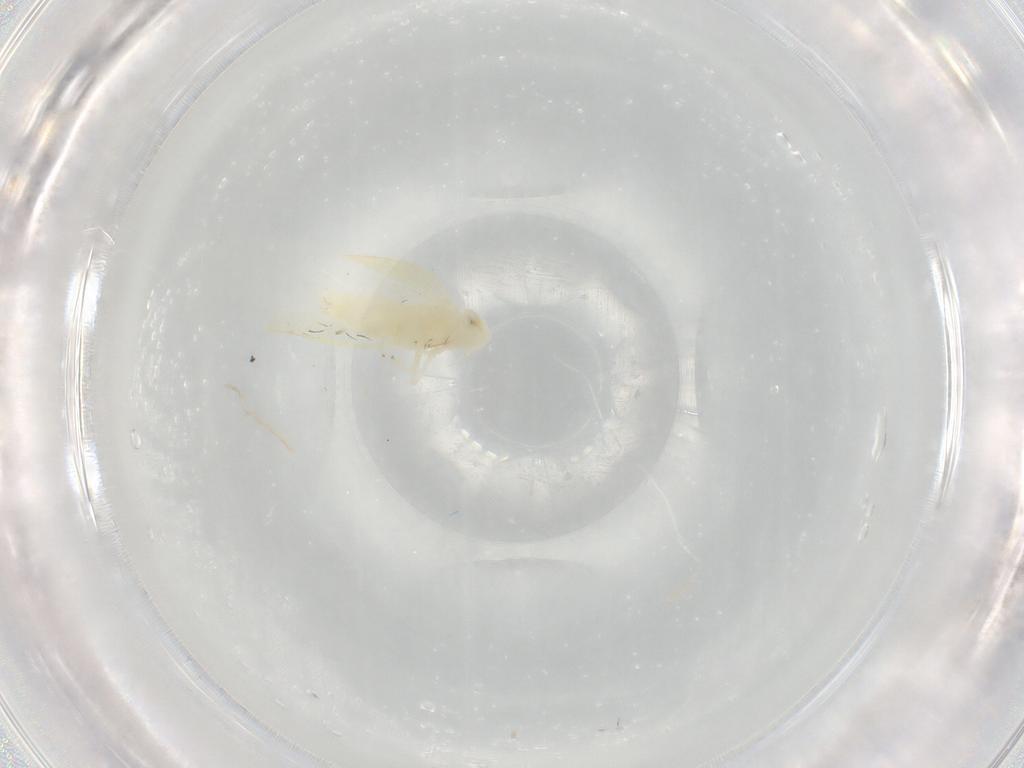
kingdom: Animalia
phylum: Arthropoda
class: Insecta
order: Hemiptera
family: Cicadellidae
